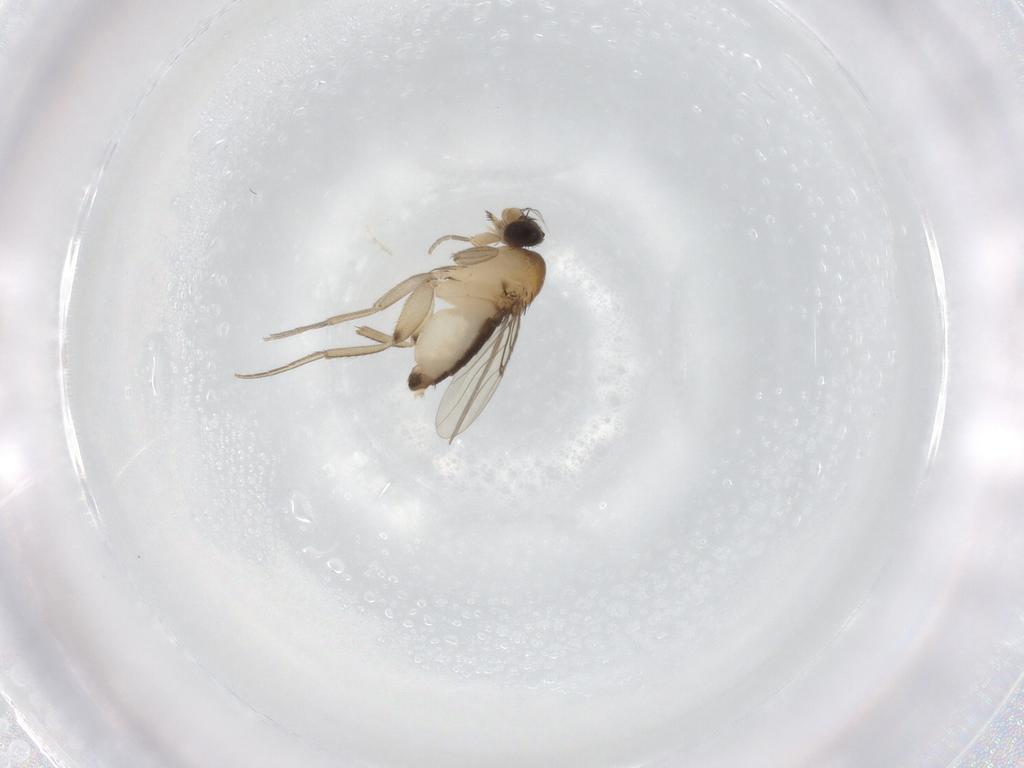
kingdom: Animalia
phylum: Arthropoda
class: Insecta
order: Diptera
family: Phoridae
